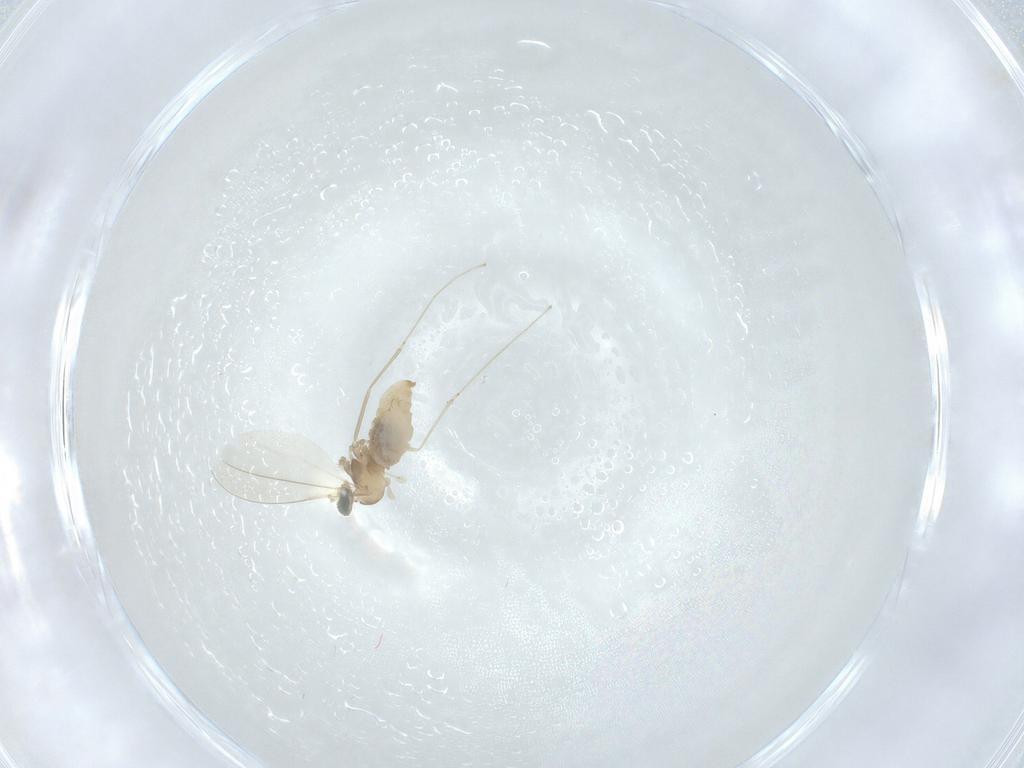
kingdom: Animalia
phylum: Arthropoda
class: Insecta
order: Diptera
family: Cecidomyiidae
